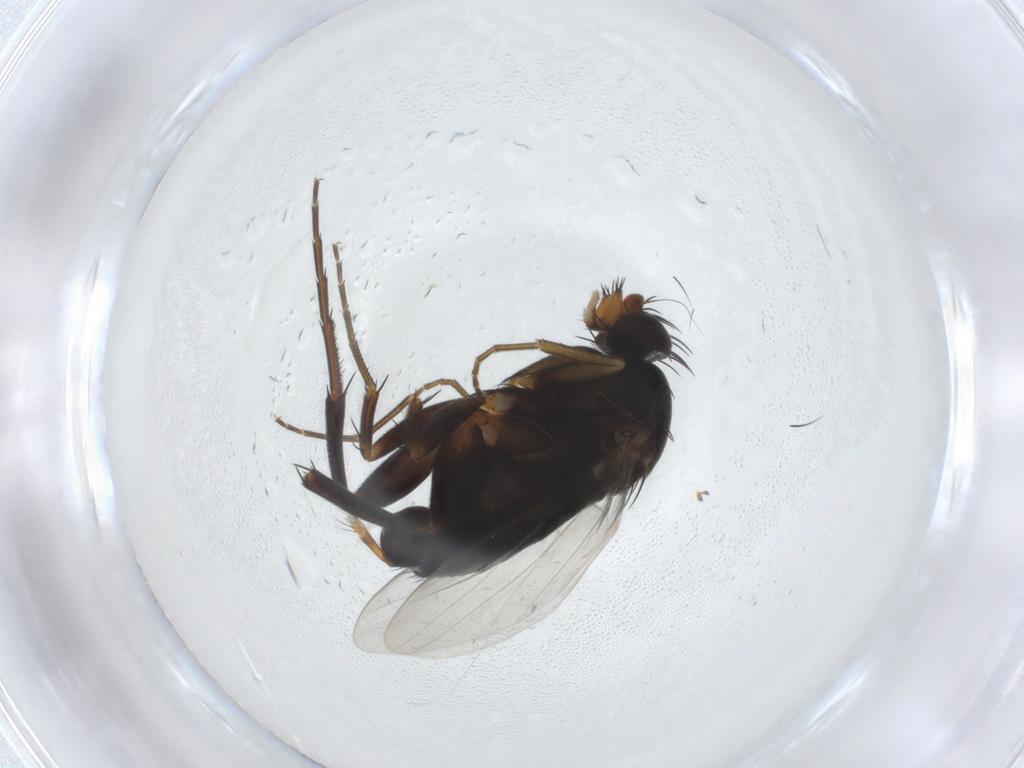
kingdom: Animalia
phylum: Arthropoda
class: Insecta
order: Diptera
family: Phoridae
